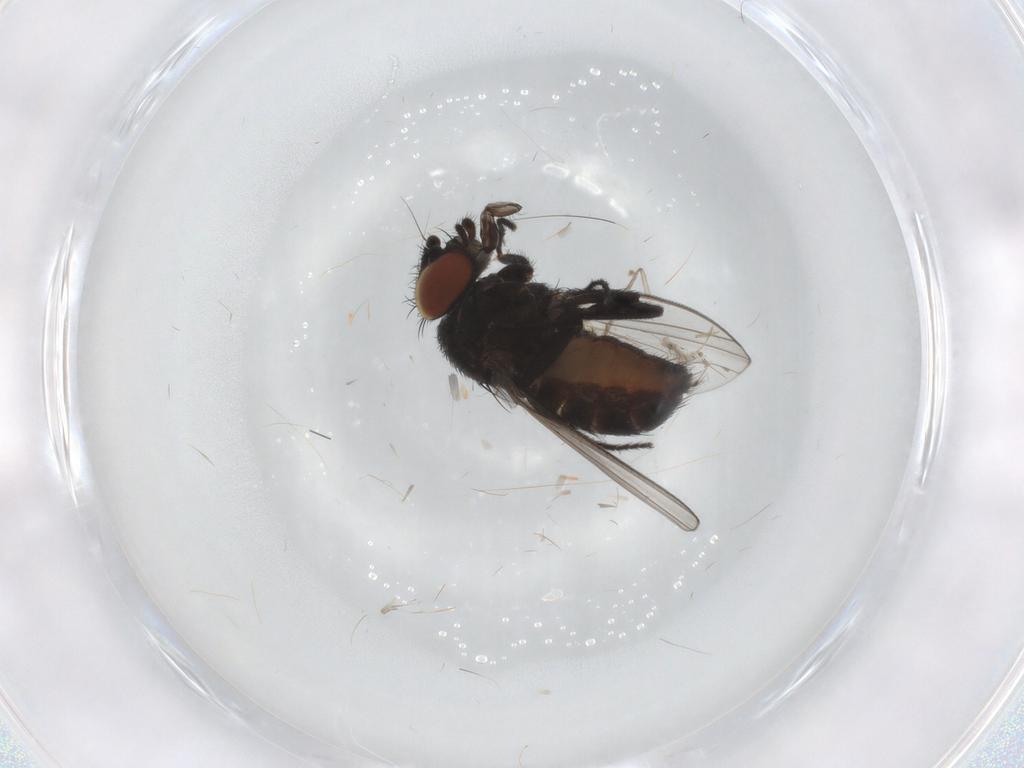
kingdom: Animalia
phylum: Arthropoda
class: Insecta
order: Diptera
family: Milichiidae
